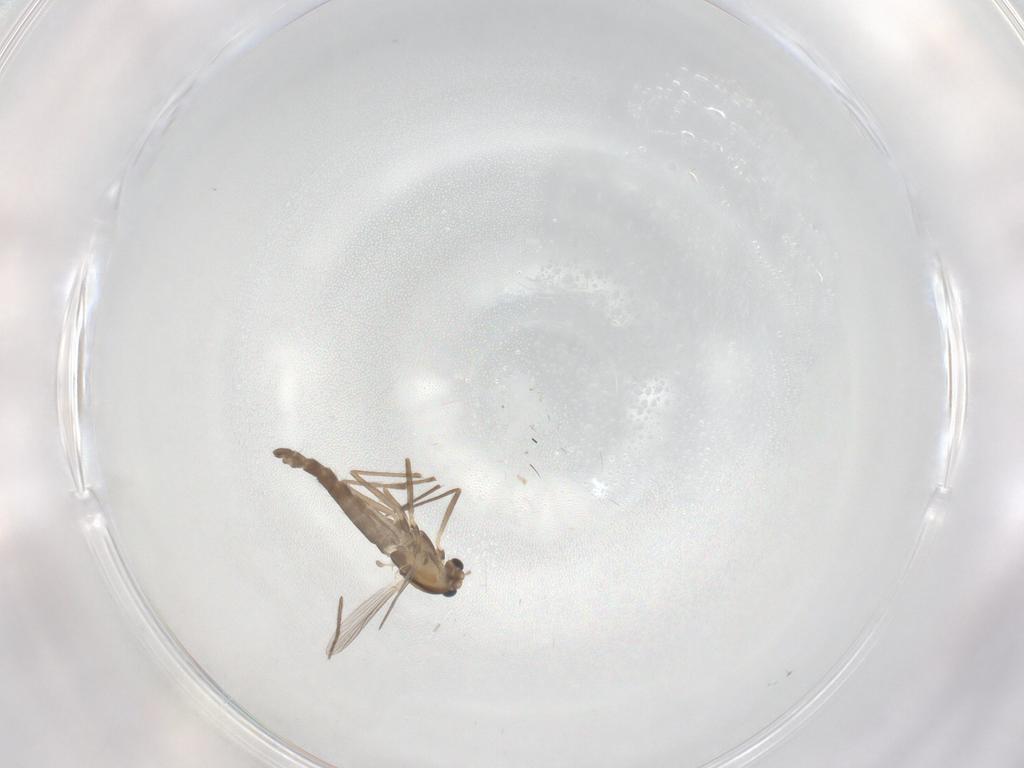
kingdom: Animalia
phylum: Arthropoda
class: Insecta
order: Diptera
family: Chironomidae
